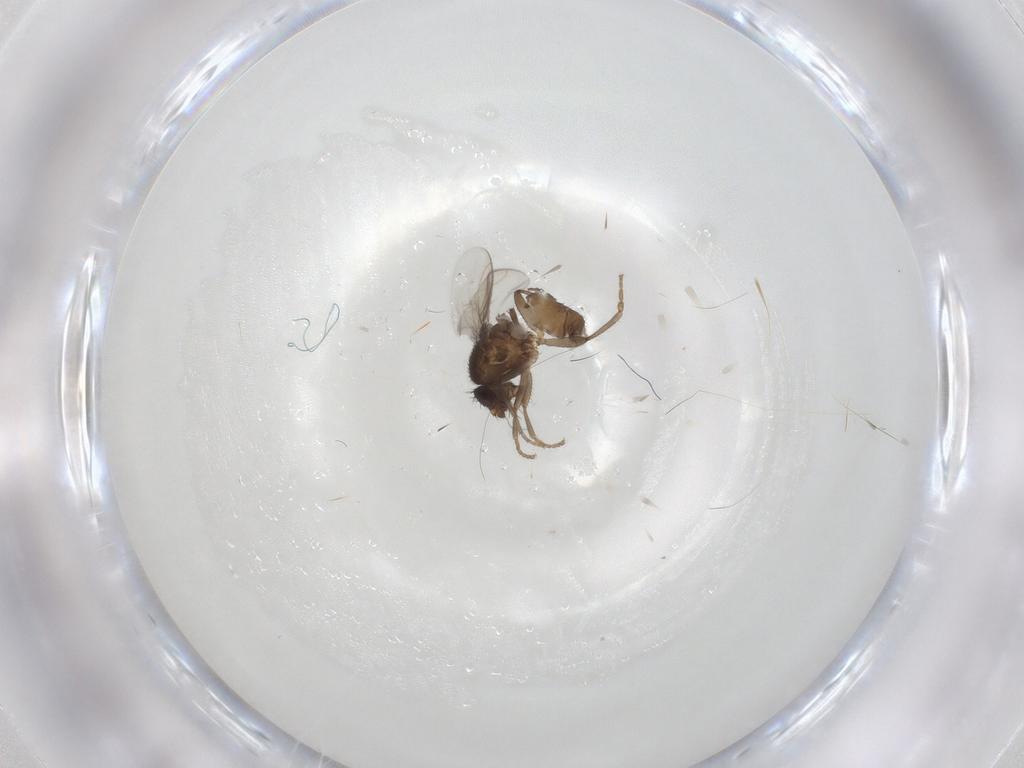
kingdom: Animalia
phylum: Arthropoda
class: Insecta
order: Diptera
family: Sphaeroceridae
